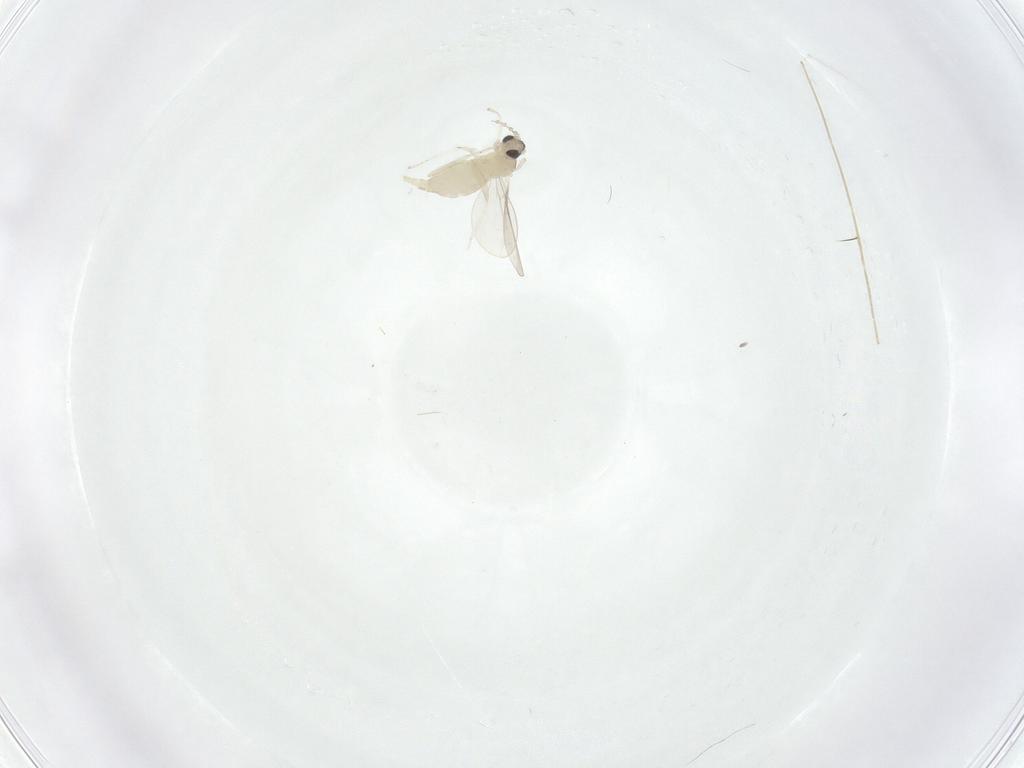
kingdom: Animalia
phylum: Arthropoda
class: Insecta
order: Diptera
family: Cecidomyiidae
